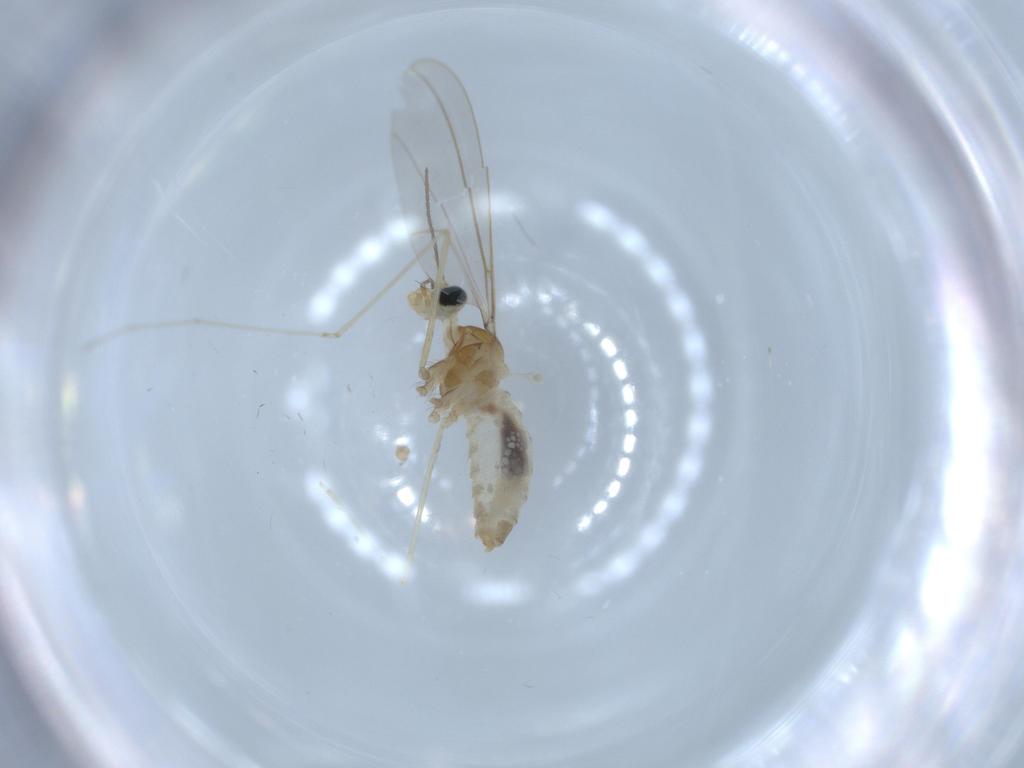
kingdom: Animalia
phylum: Arthropoda
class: Insecta
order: Diptera
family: Cecidomyiidae
